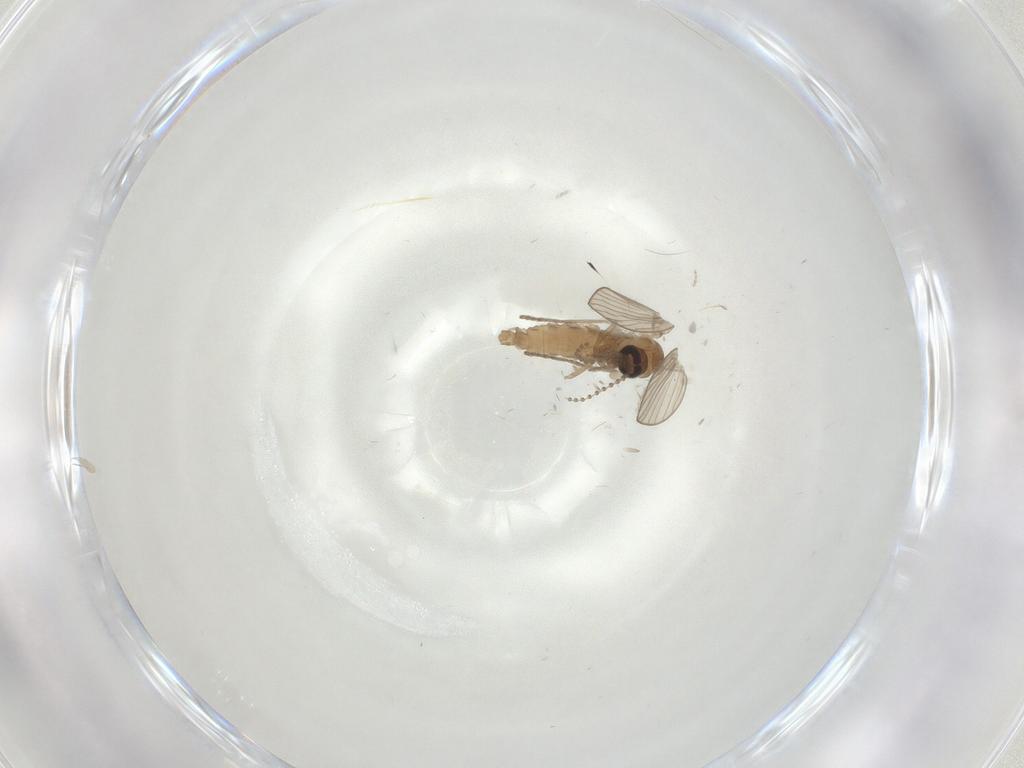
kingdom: Animalia
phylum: Arthropoda
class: Insecta
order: Diptera
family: Psychodidae
